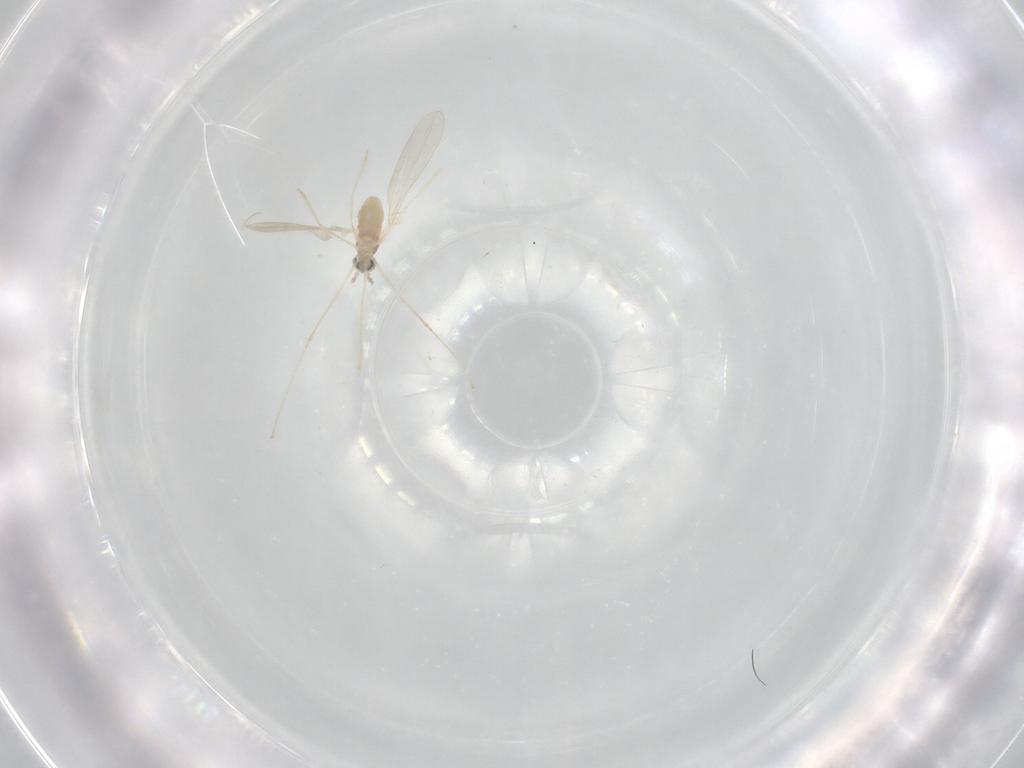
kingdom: Animalia
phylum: Arthropoda
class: Insecta
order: Diptera
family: Cecidomyiidae
